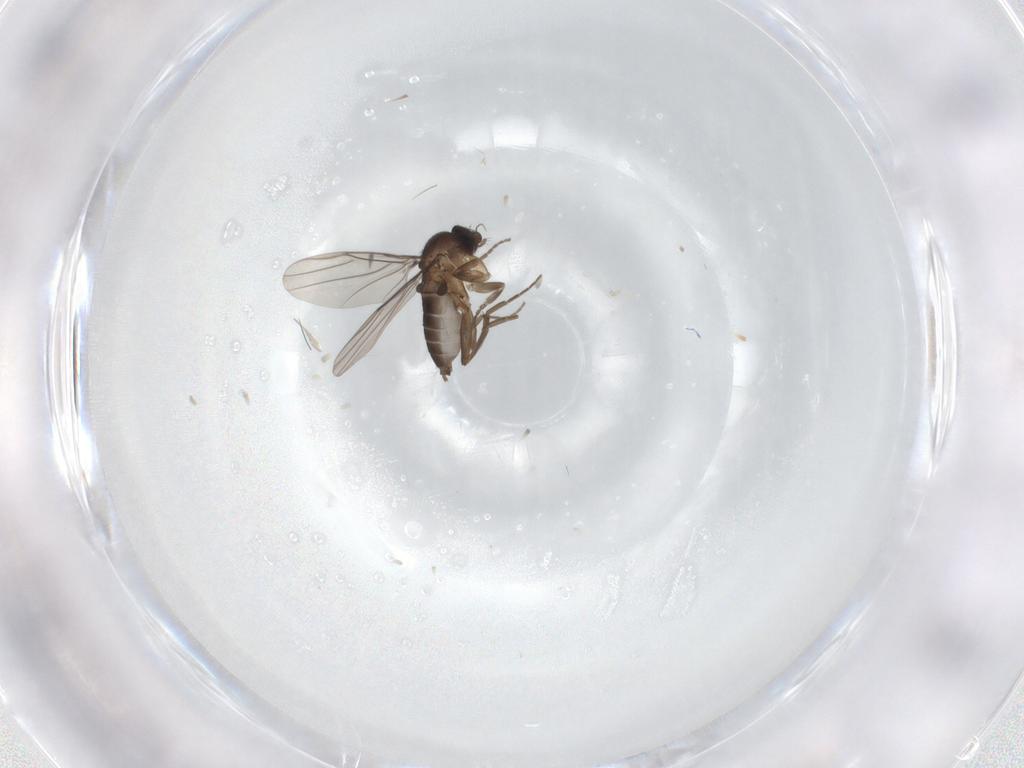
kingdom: Animalia
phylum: Arthropoda
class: Insecta
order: Diptera
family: Phoridae
